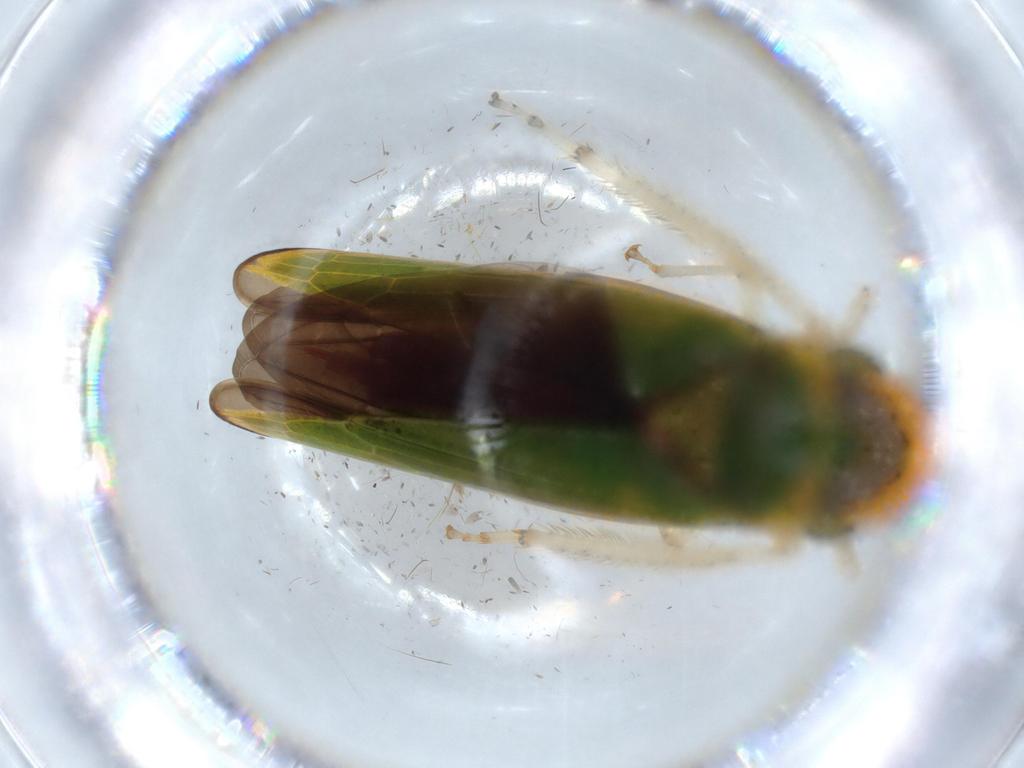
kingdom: Animalia
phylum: Arthropoda
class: Insecta
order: Hemiptera
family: Cicadellidae
